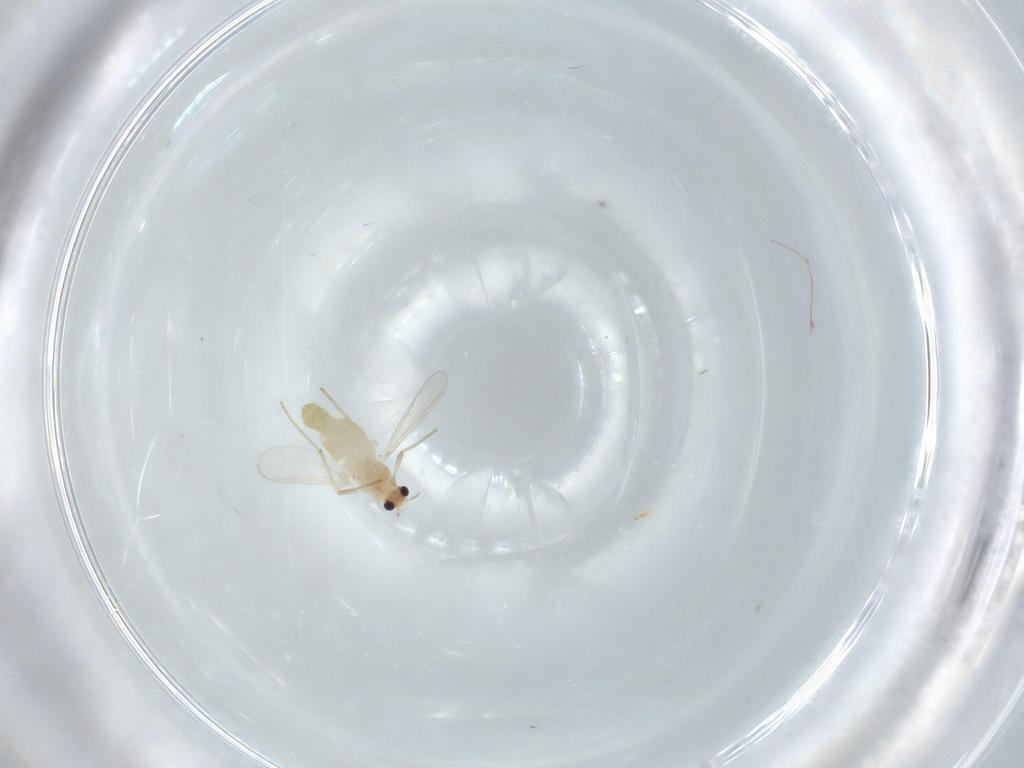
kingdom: Animalia
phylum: Arthropoda
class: Insecta
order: Diptera
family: Chironomidae
